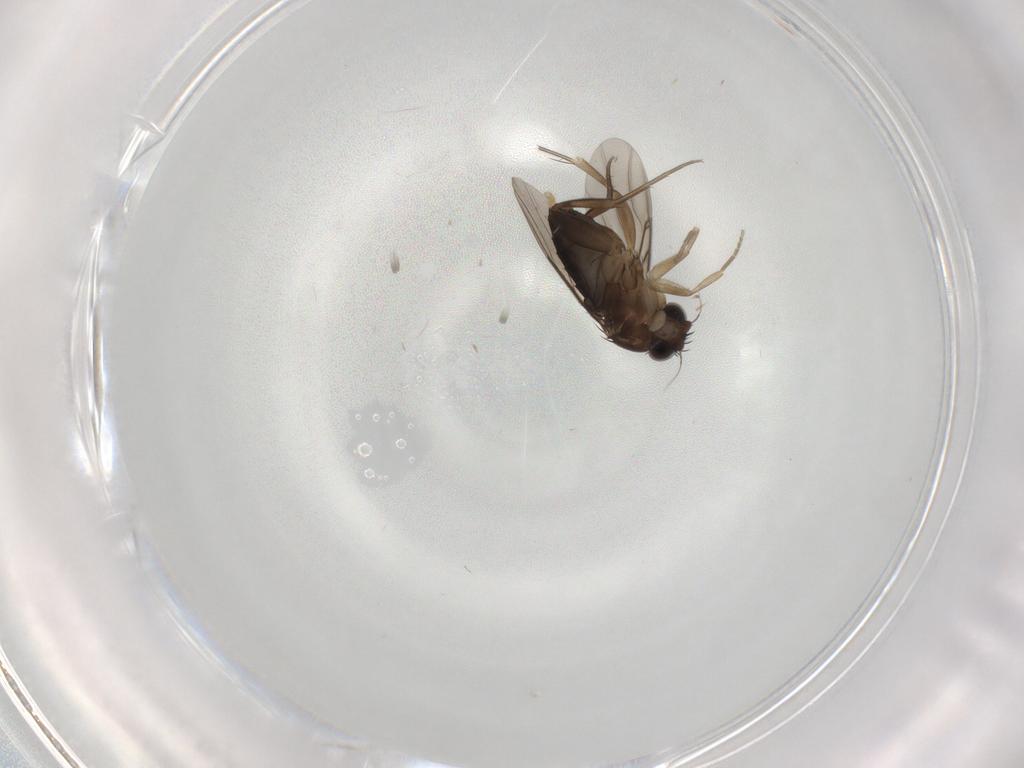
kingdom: Animalia
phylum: Arthropoda
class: Insecta
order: Diptera
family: Phoridae
